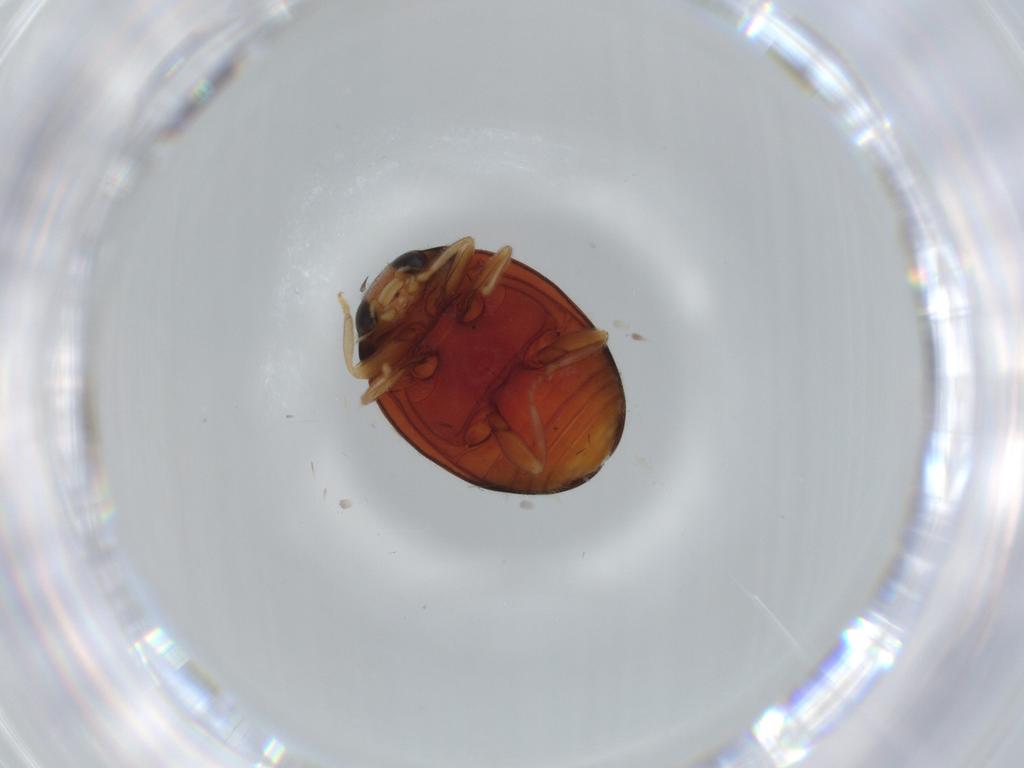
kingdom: Animalia
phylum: Arthropoda
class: Insecta
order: Coleoptera
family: Coccinellidae
